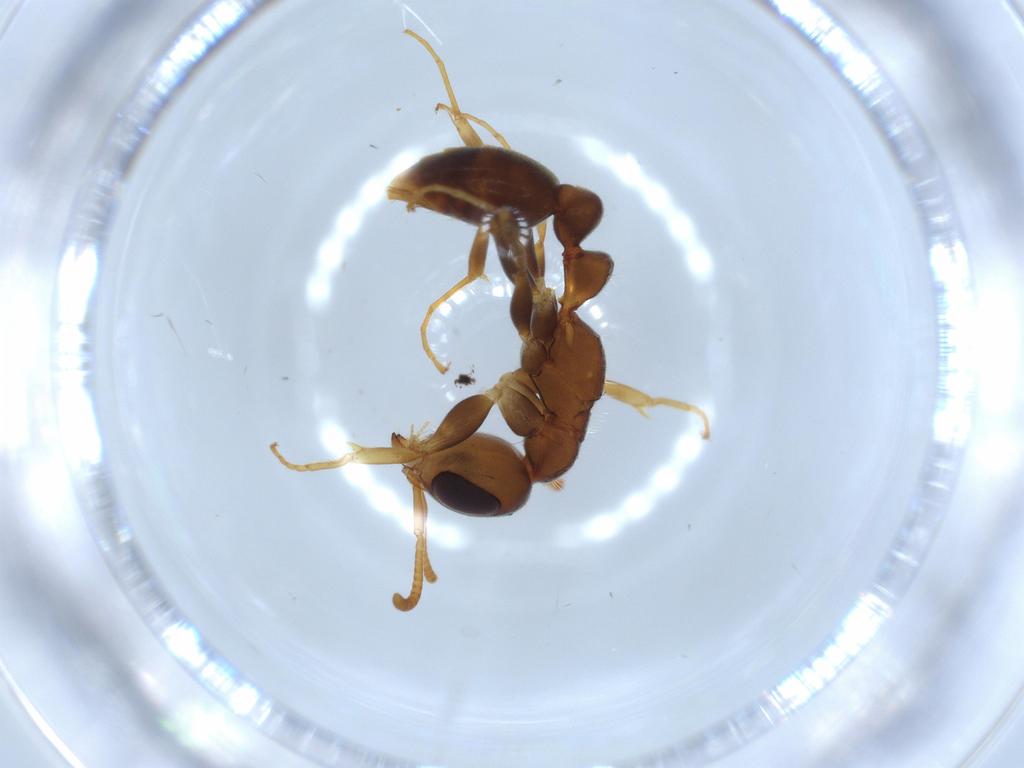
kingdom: Animalia
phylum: Arthropoda
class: Insecta
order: Hymenoptera
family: Formicidae
